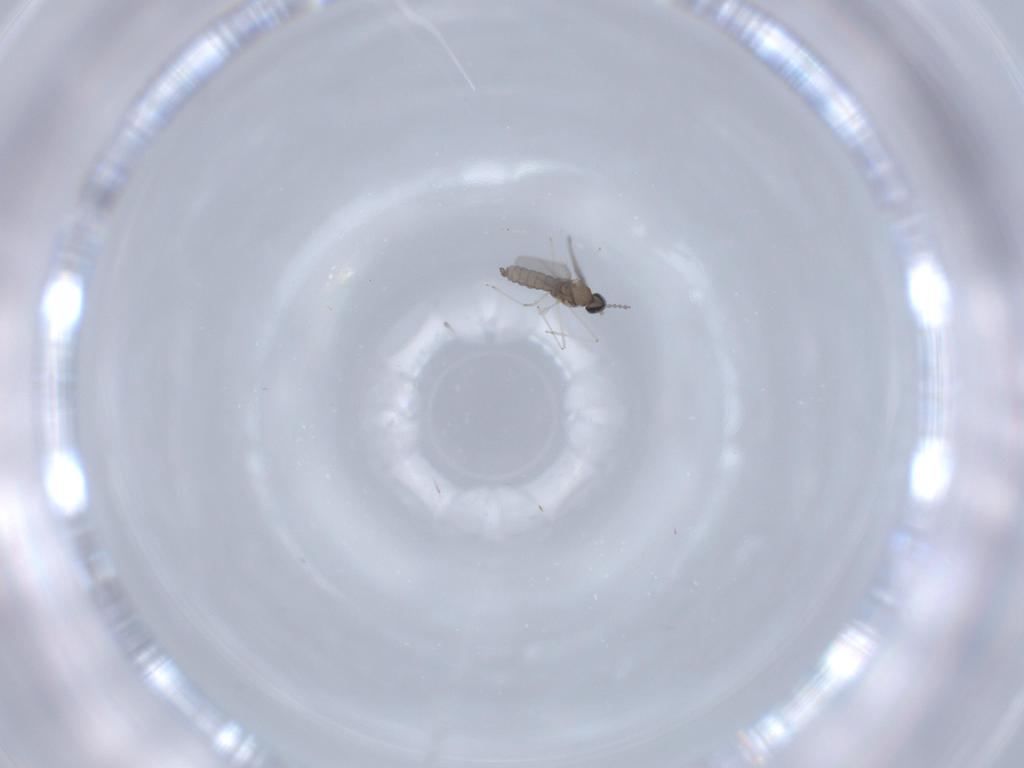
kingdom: Animalia
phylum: Arthropoda
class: Insecta
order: Diptera
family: Cecidomyiidae
